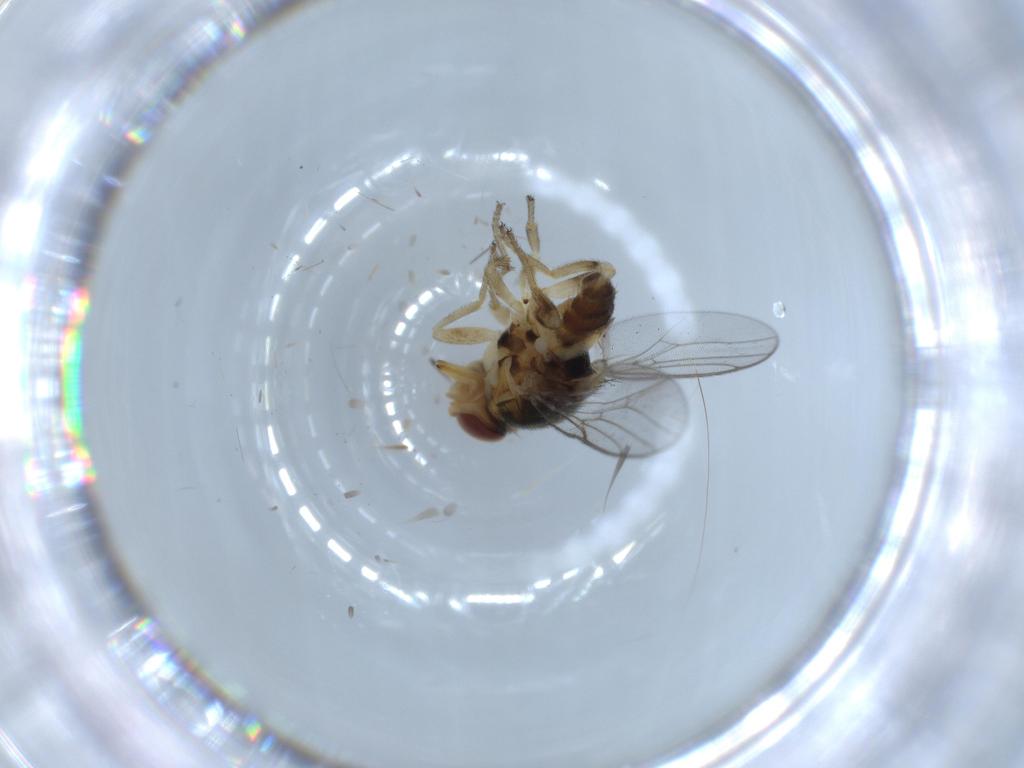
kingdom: Animalia
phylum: Arthropoda
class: Insecta
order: Diptera
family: Chloropidae
